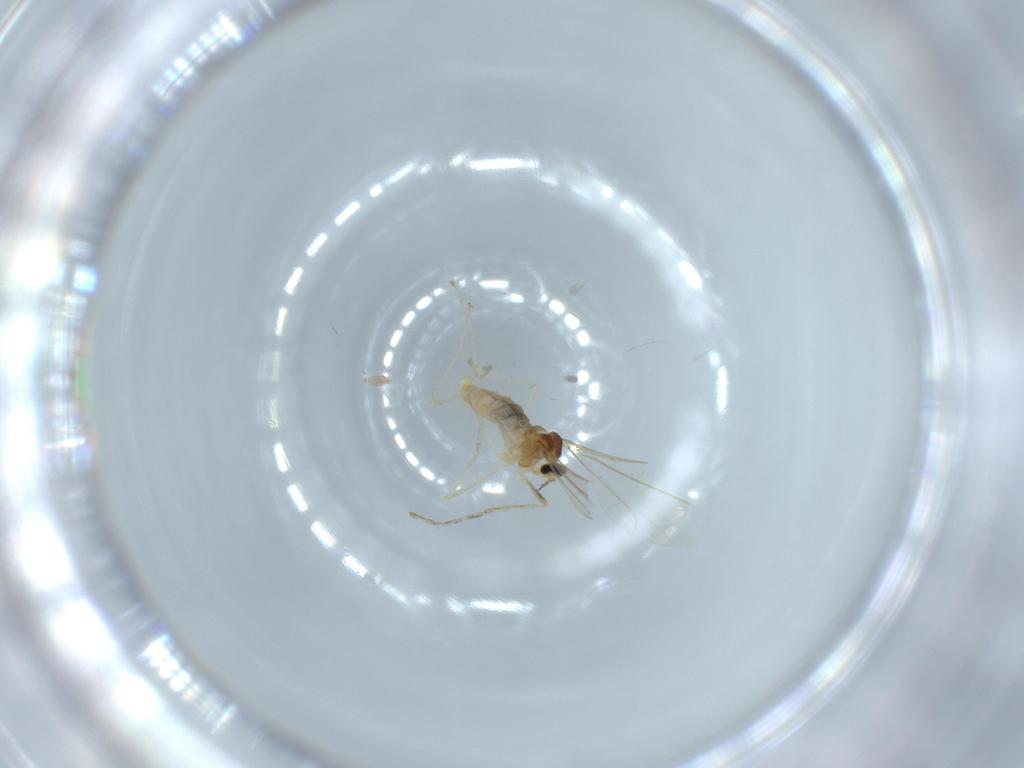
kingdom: Animalia
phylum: Arthropoda
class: Insecta
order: Diptera
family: Cecidomyiidae
